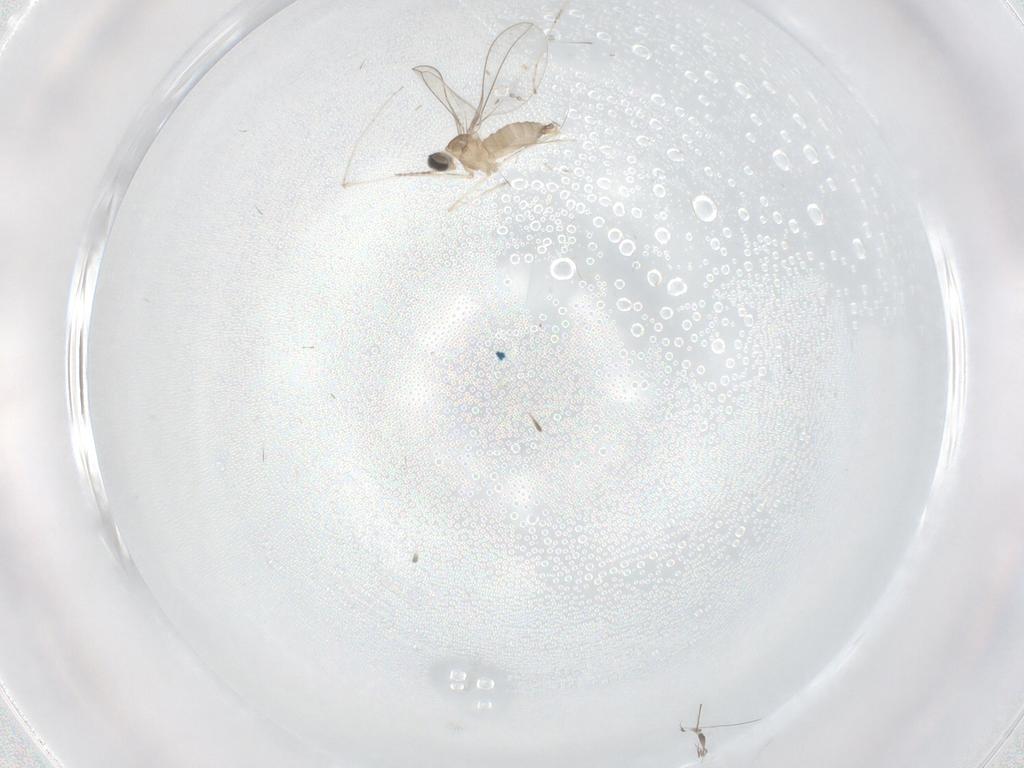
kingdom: Animalia
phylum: Arthropoda
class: Insecta
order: Diptera
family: Cecidomyiidae
